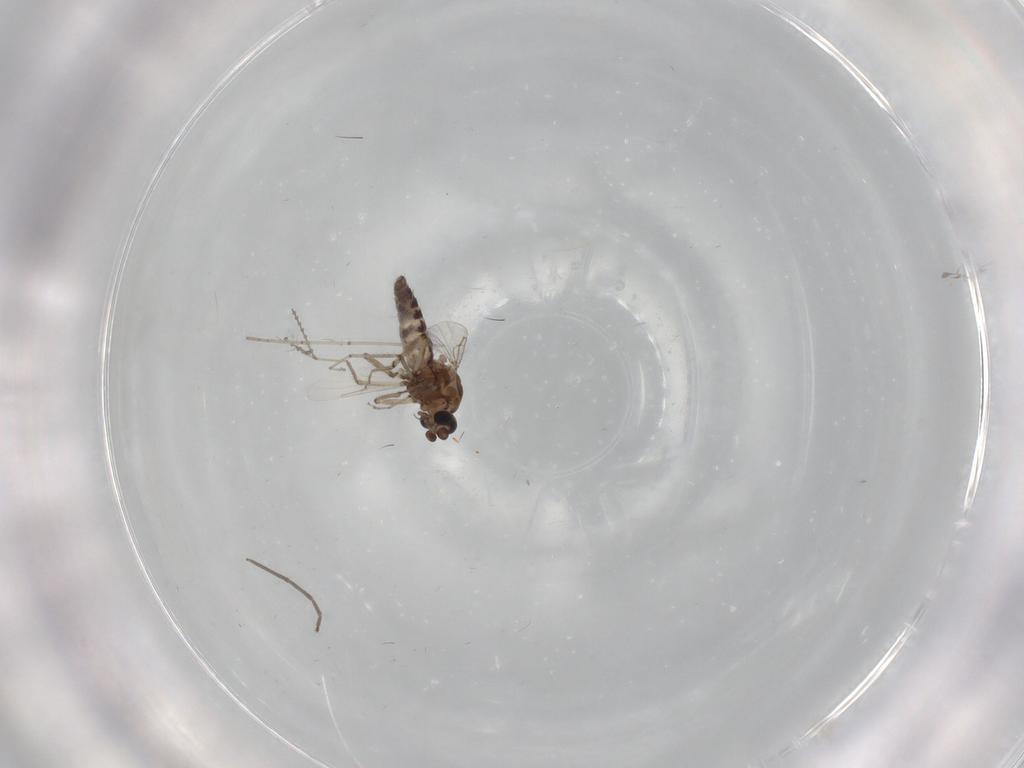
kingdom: Animalia
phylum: Arthropoda
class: Insecta
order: Diptera
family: Ceratopogonidae
